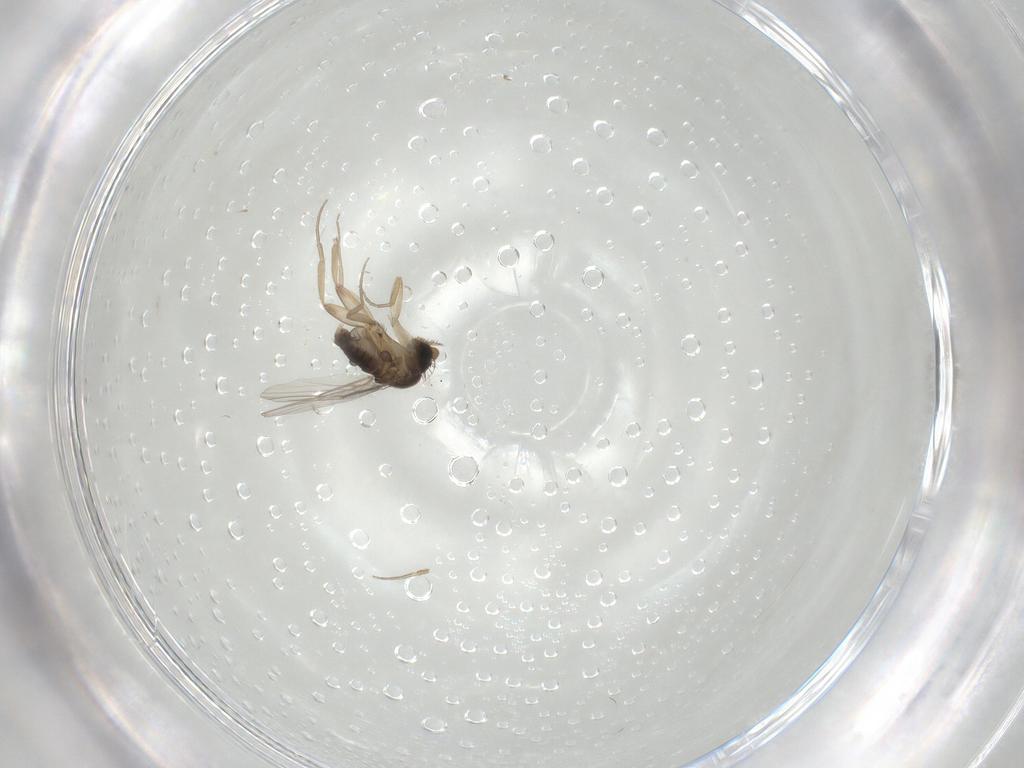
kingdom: Animalia
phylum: Arthropoda
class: Insecta
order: Diptera
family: Phoridae
